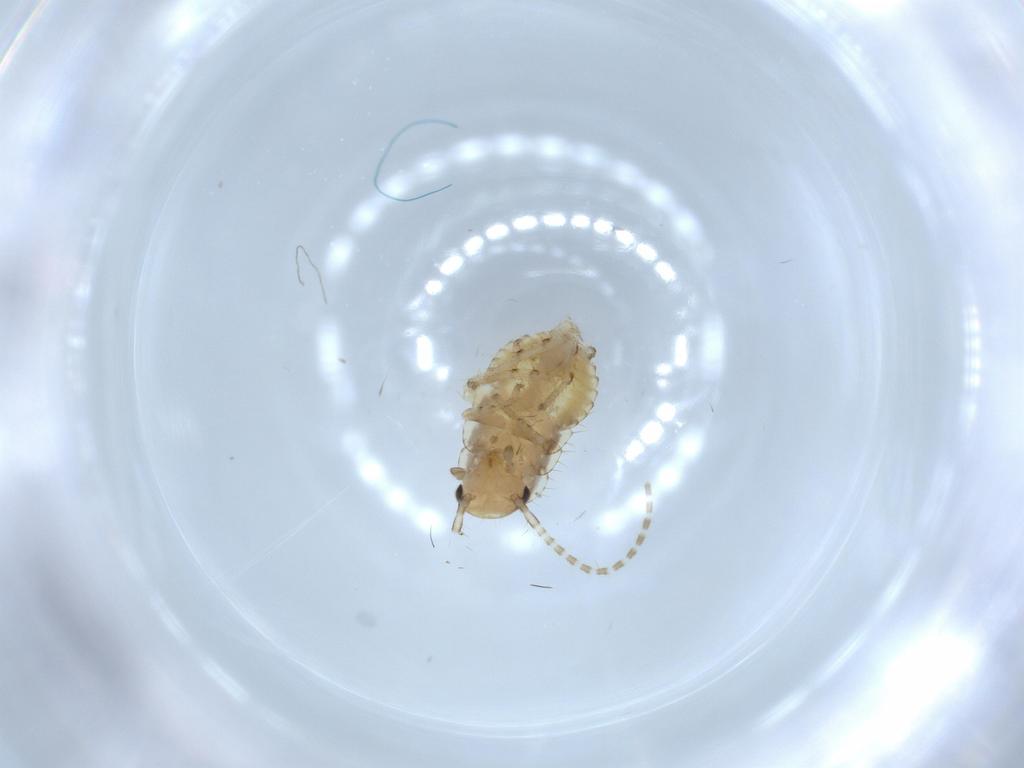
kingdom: Animalia
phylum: Arthropoda
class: Insecta
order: Blattodea
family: Ectobiidae
